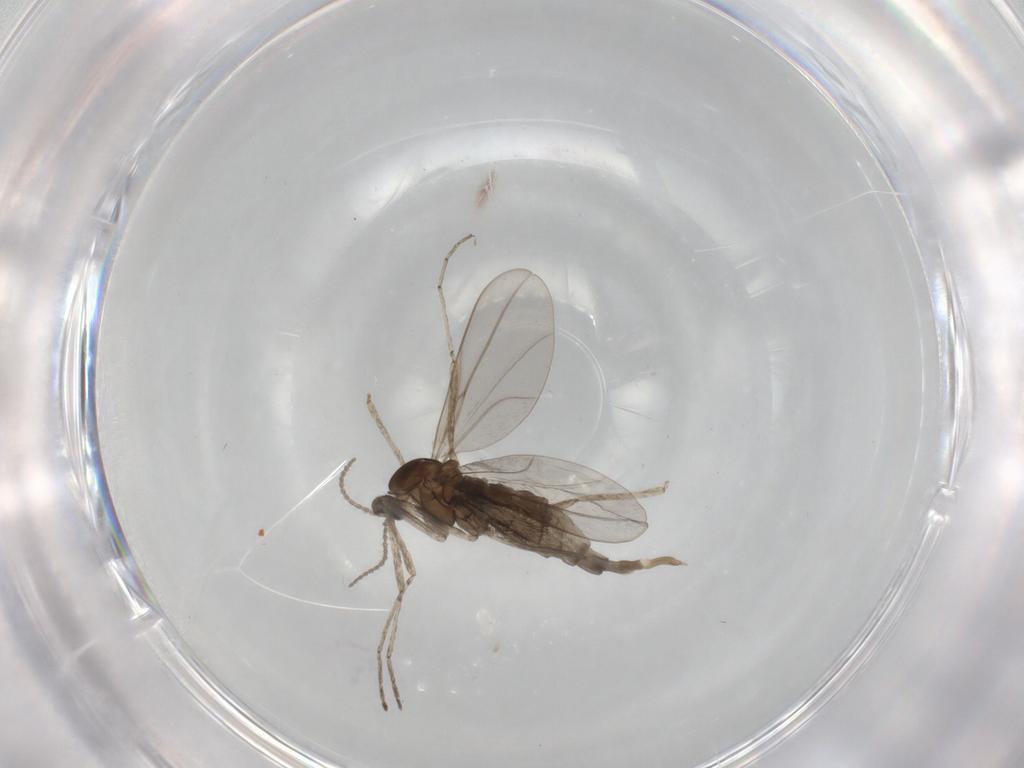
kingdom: Animalia
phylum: Arthropoda
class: Insecta
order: Diptera
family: Cecidomyiidae
